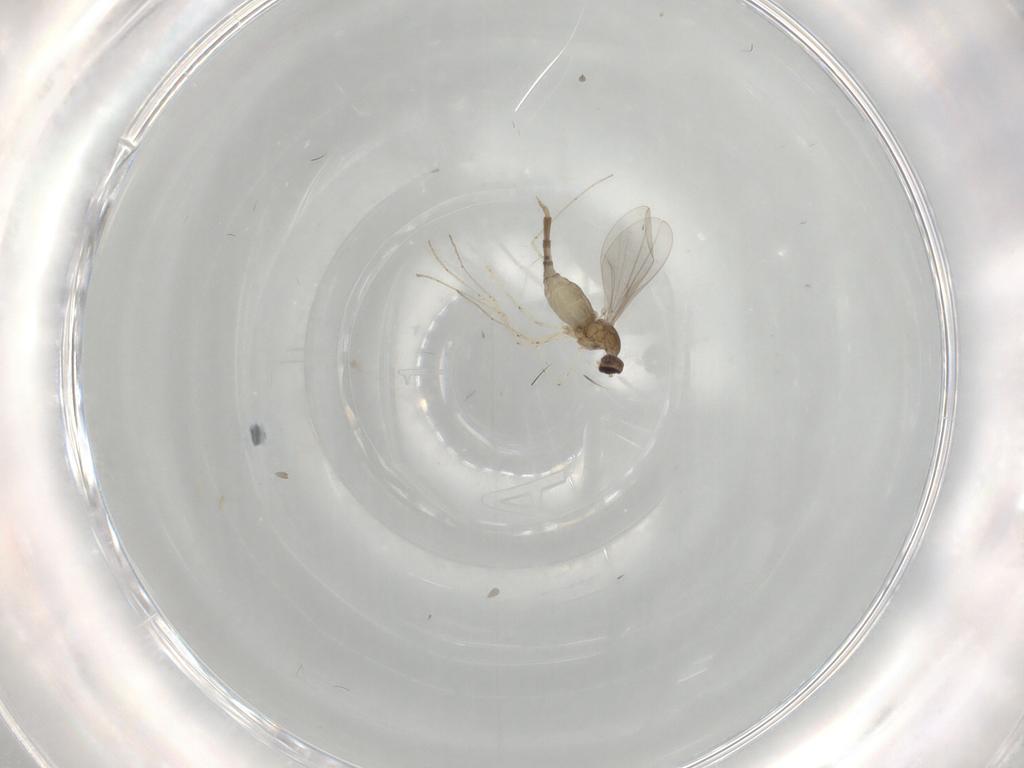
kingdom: Animalia
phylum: Arthropoda
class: Insecta
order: Diptera
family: Cecidomyiidae
